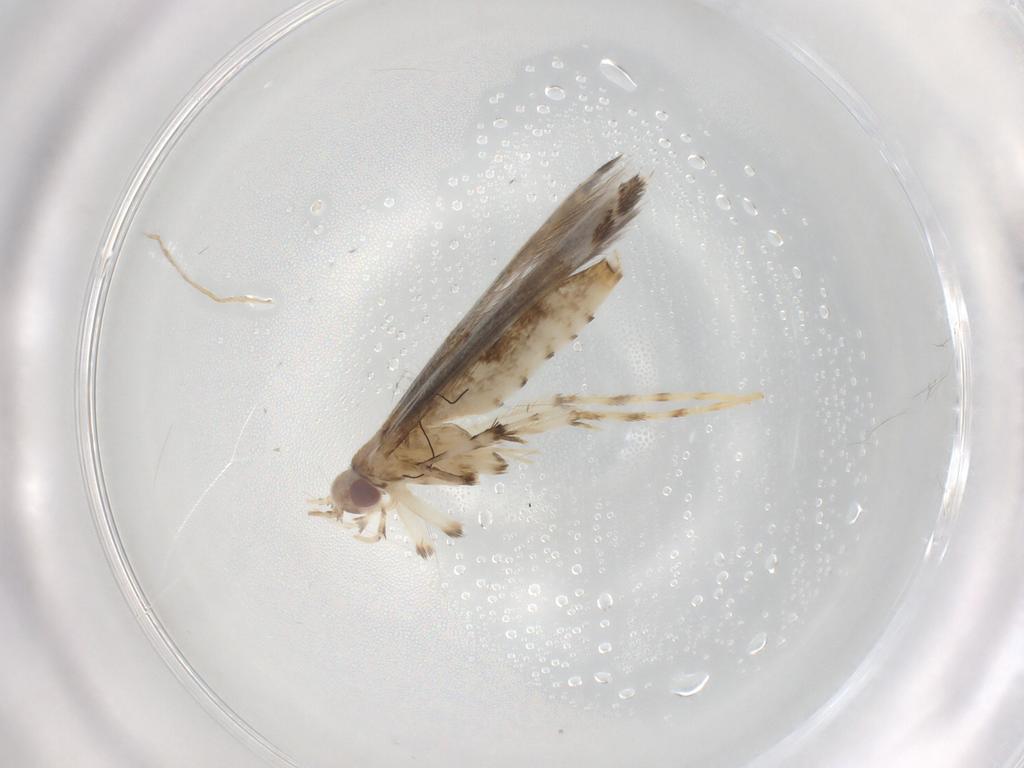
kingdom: Animalia
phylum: Arthropoda
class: Insecta
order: Lepidoptera
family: Gracillariidae
